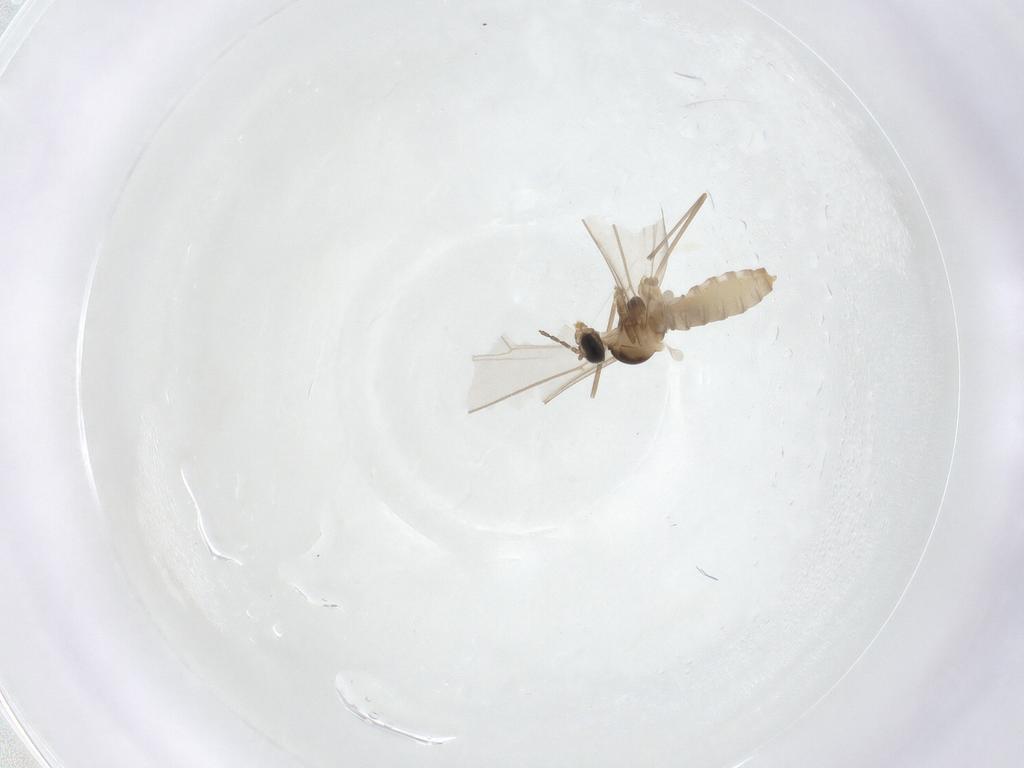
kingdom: Animalia
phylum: Arthropoda
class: Insecta
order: Diptera
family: Cecidomyiidae
